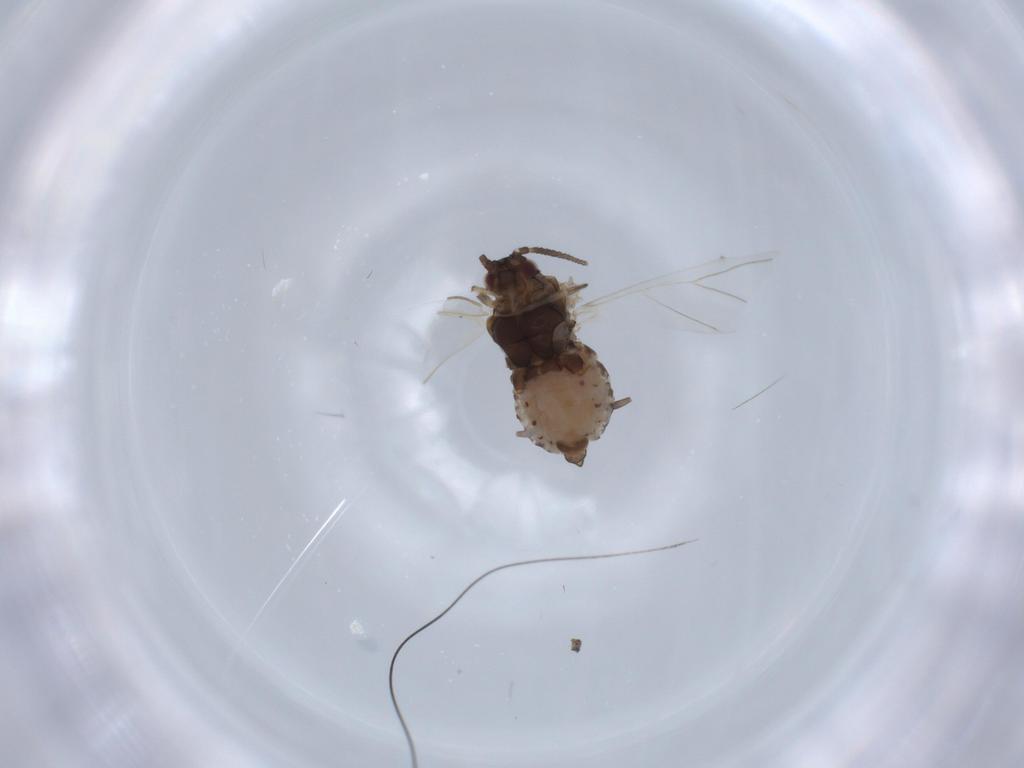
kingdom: Animalia
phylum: Arthropoda
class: Insecta
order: Hemiptera
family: Aphididae
